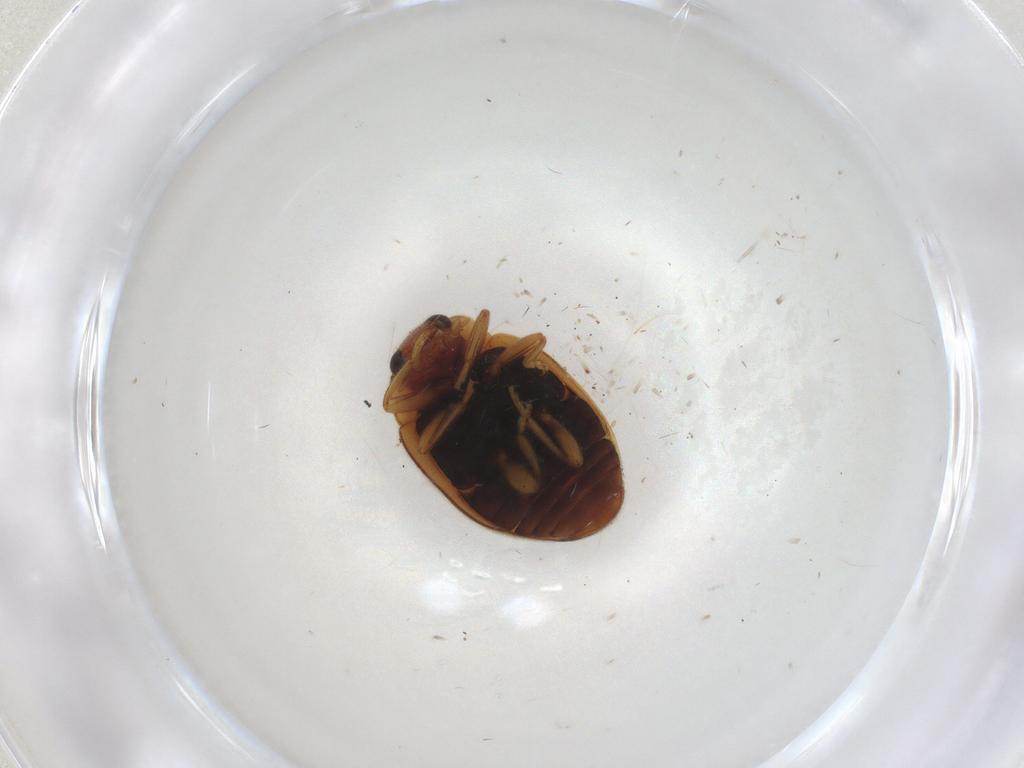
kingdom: Animalia
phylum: Arthropoda
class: Insecta
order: Coleoptera
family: Coccinellidae
